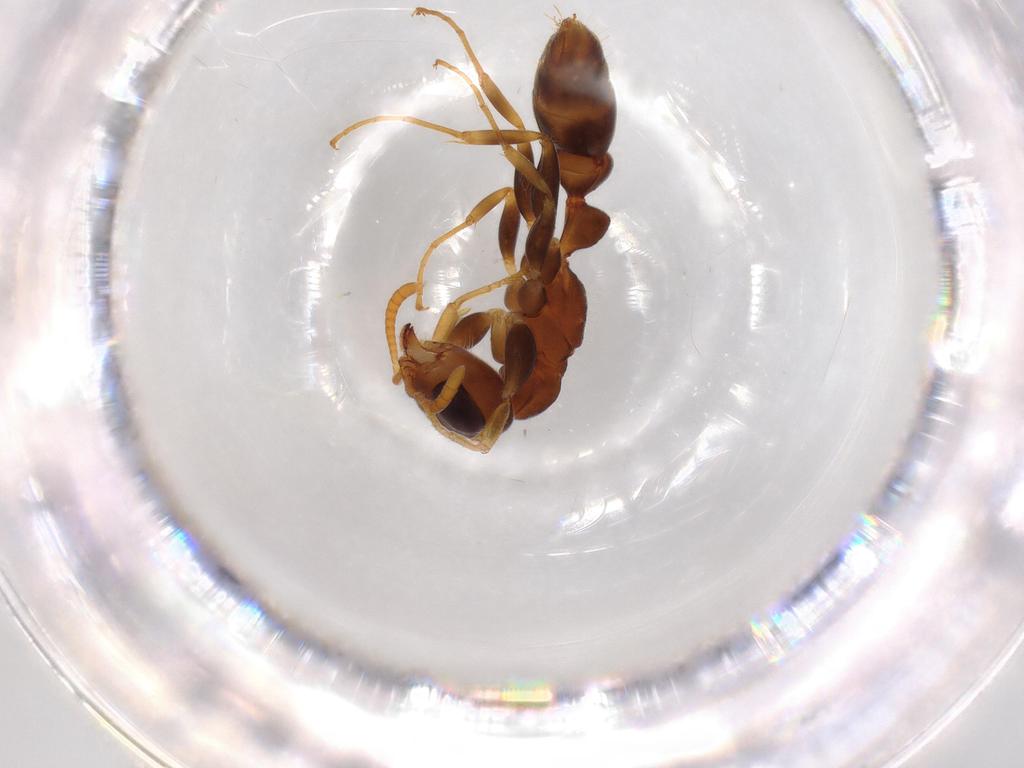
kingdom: Animalia
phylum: Arthropoda
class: Insecta
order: Hymenoptera
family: Formicidae
